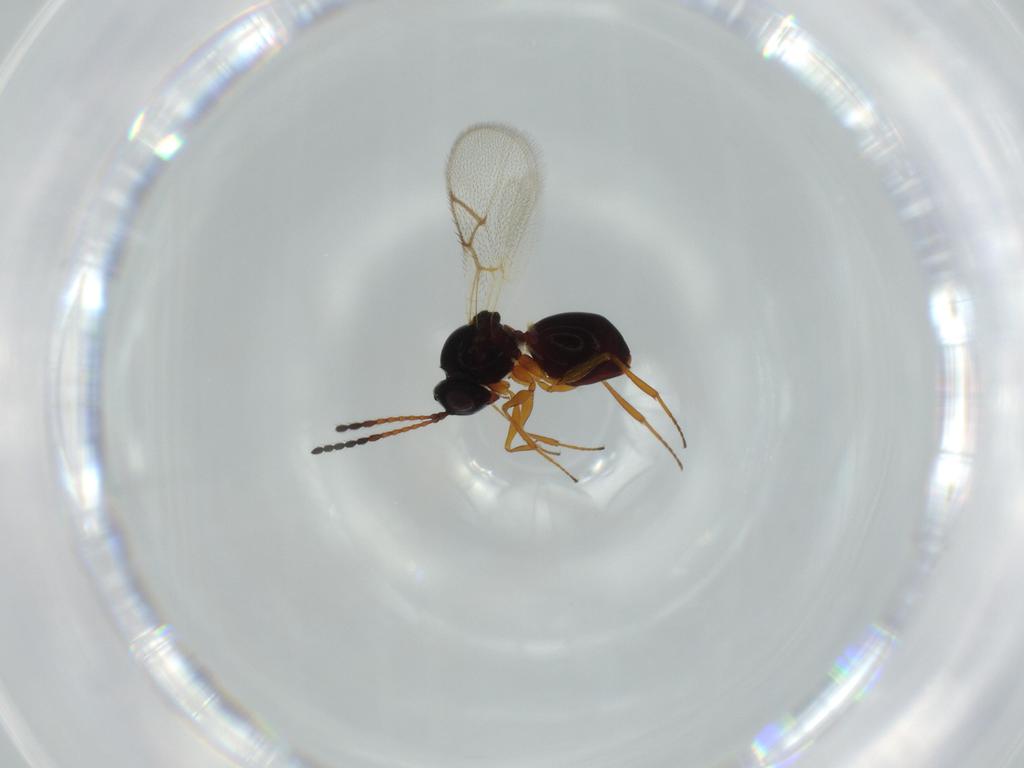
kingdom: Animalia
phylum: Arthropoda
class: Insecta
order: Hymenoptera
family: Figitidae
